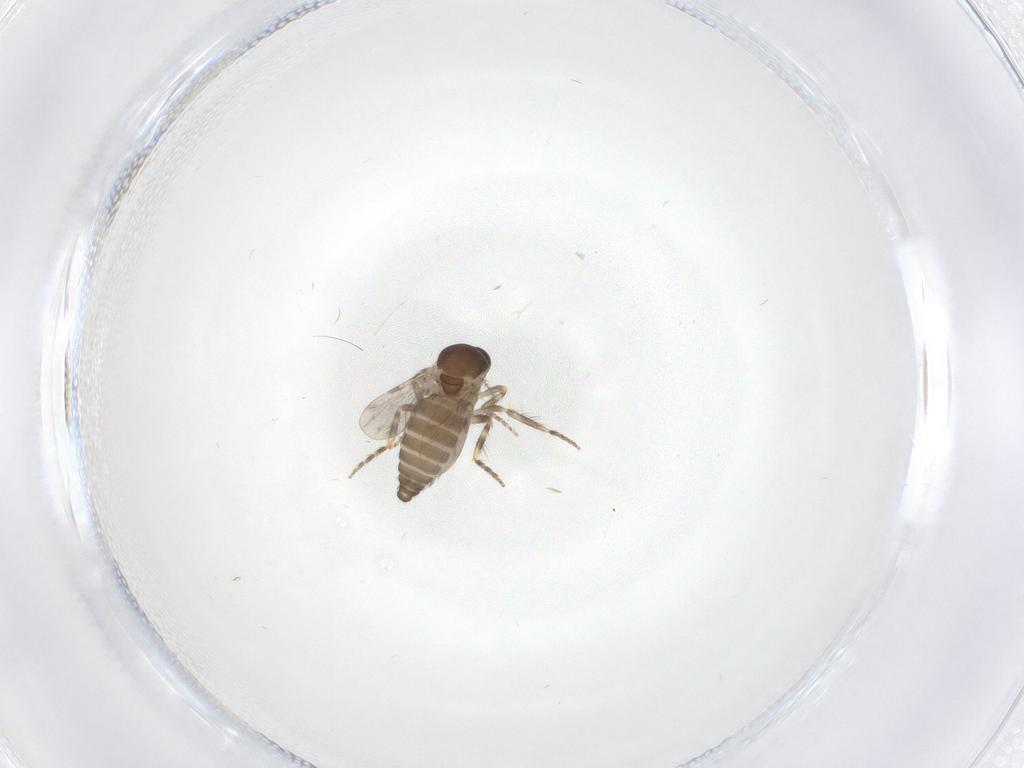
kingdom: Animalia
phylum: Arthropoda
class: Insecta
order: Diptera
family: Ceratopogonidae
